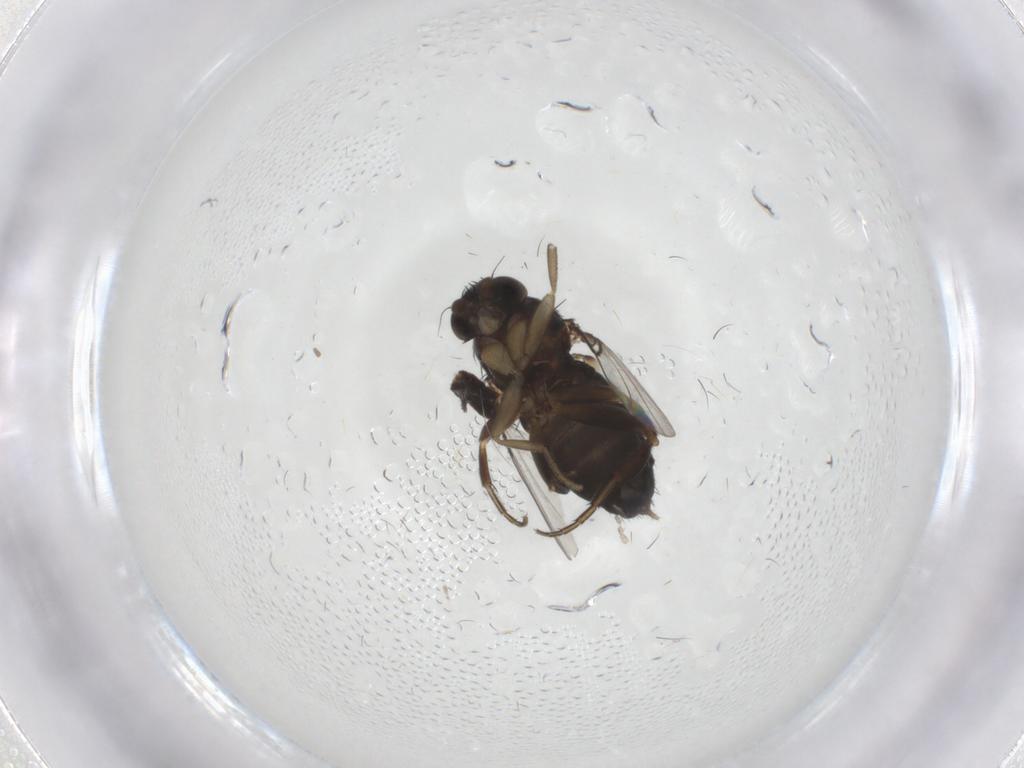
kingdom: Animalia
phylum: Arthropoda
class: Insecta
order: Diptera
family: Phoridae
